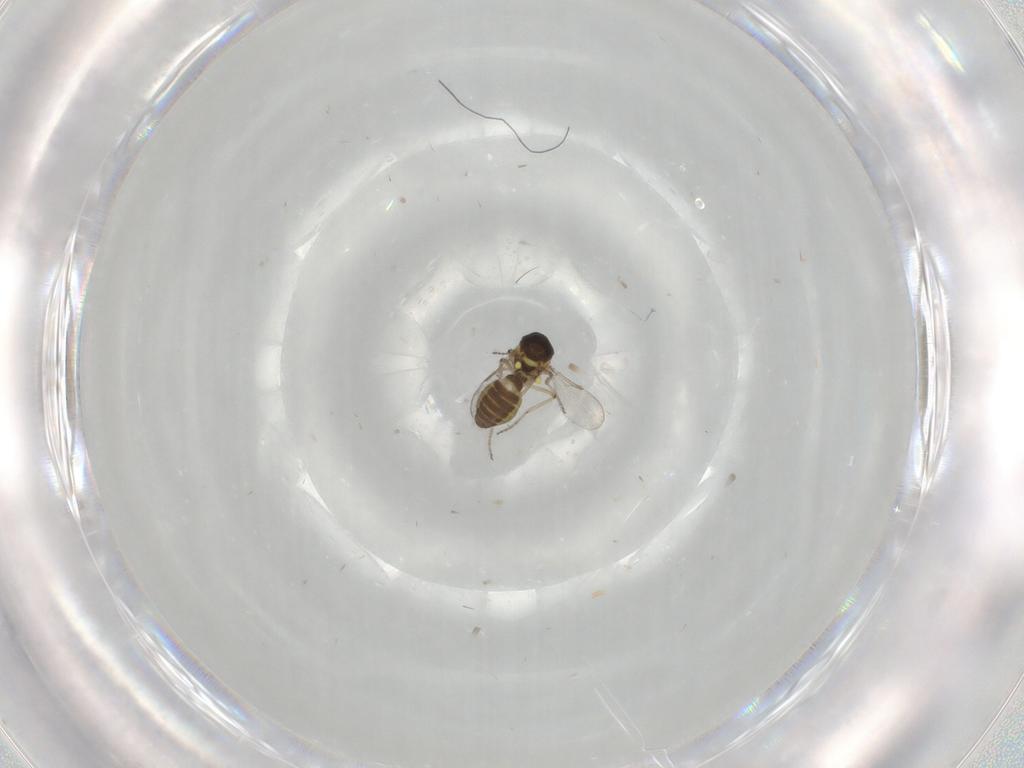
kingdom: Animalia
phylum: Arthropoda
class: Insecta
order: Diptera
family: Ceratopogonidae
